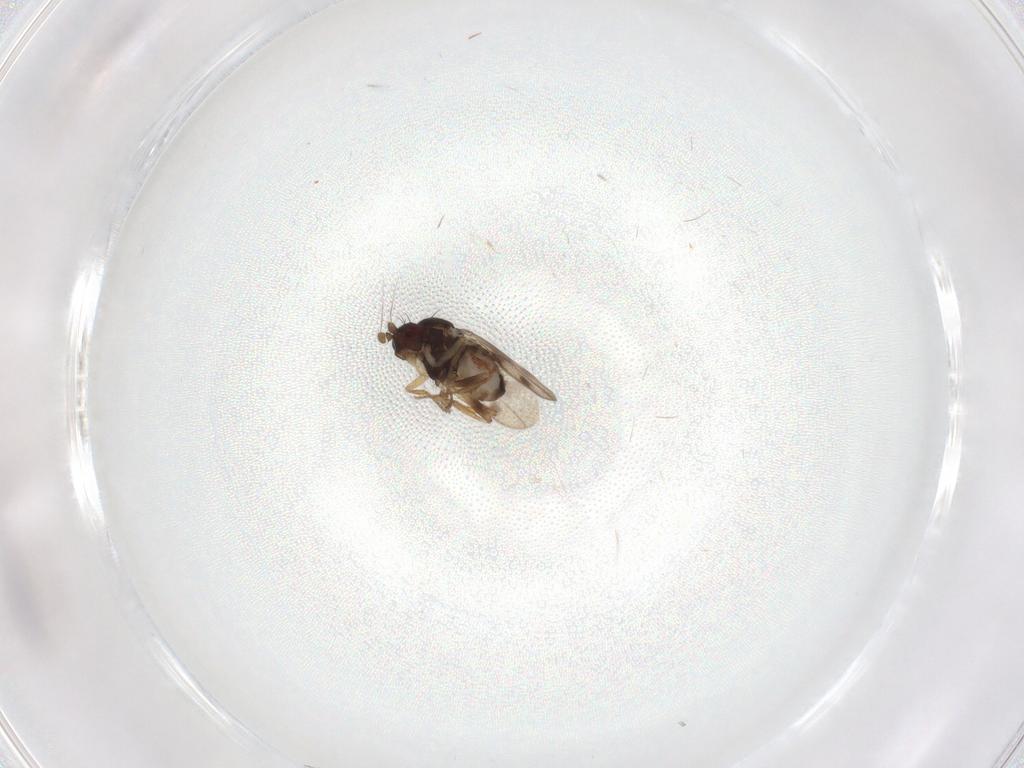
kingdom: Animalia
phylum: Arthropoda
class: Insecta
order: Diptera
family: Sphaeroceridae
